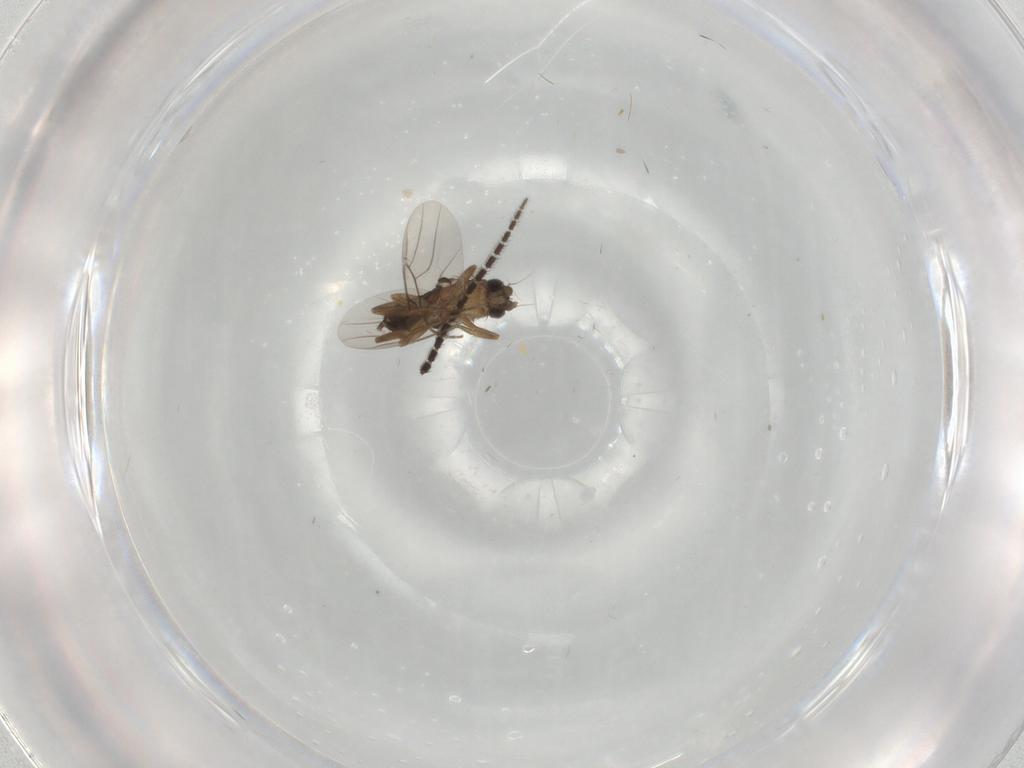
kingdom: Animalia
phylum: Arthropoda
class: Insecta
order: Diptera
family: Phoridae
